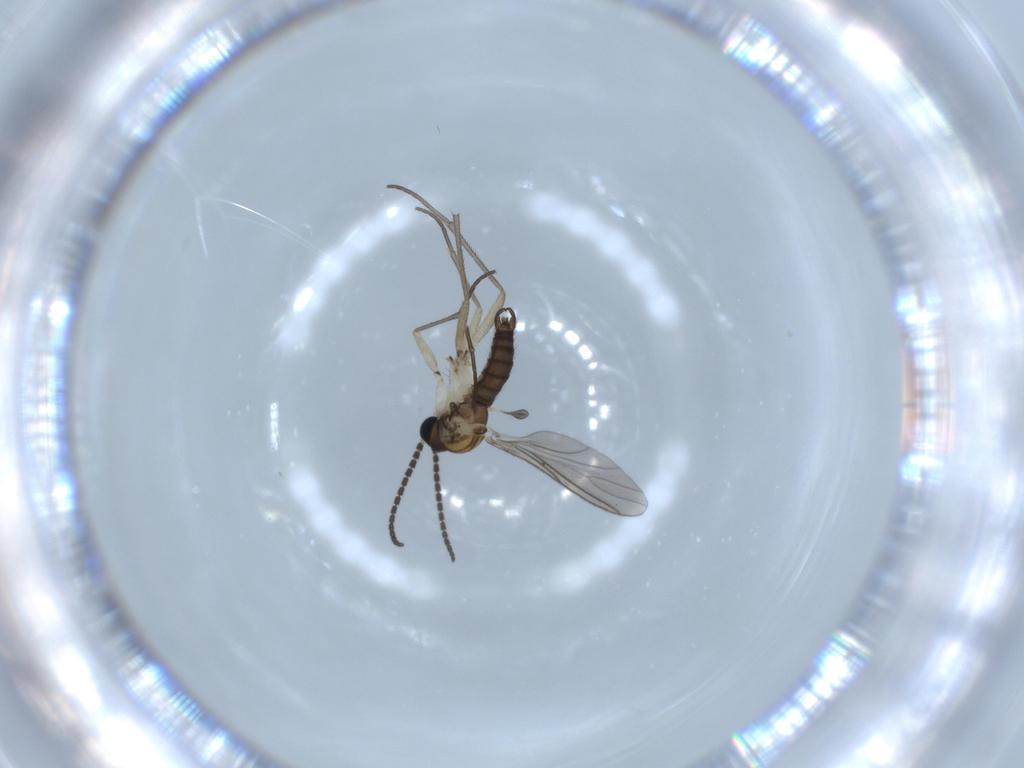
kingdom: Animalia
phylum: Arthropoda
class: Insecta
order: Diptera
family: Sciaridae
